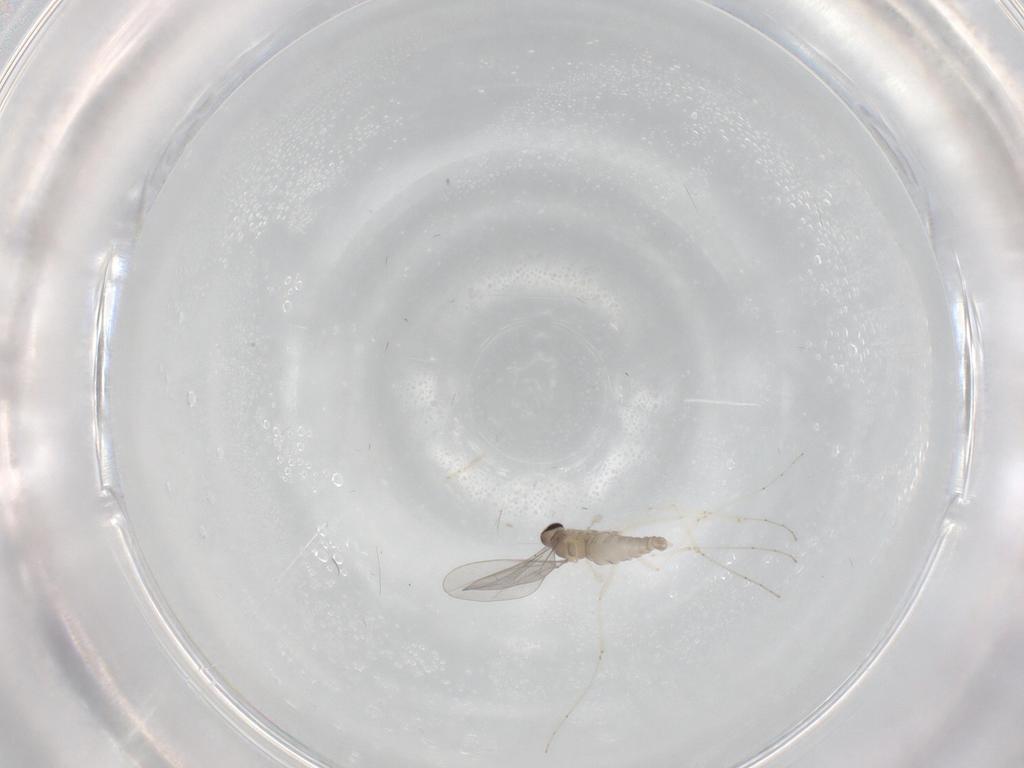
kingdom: Animalia
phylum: Arthropoda
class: Insecta
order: Diptera
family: Cecidomyiidae
